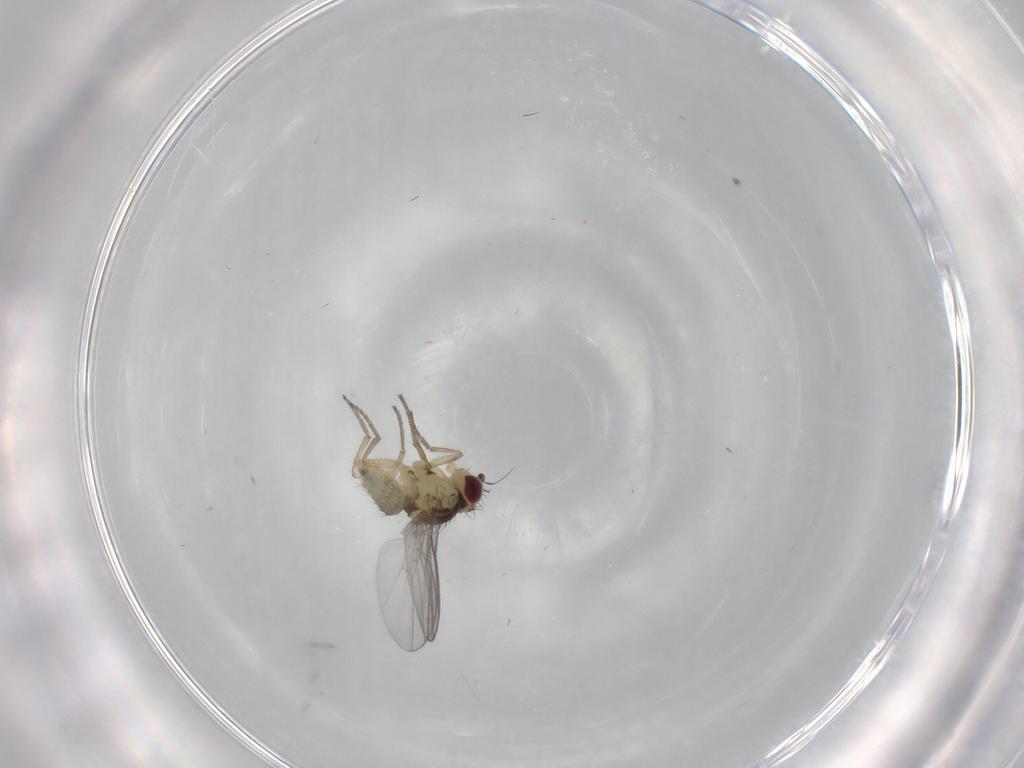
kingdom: Animalia
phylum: Arthropoda
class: Insecta
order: Diptera
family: Agromyzidae
